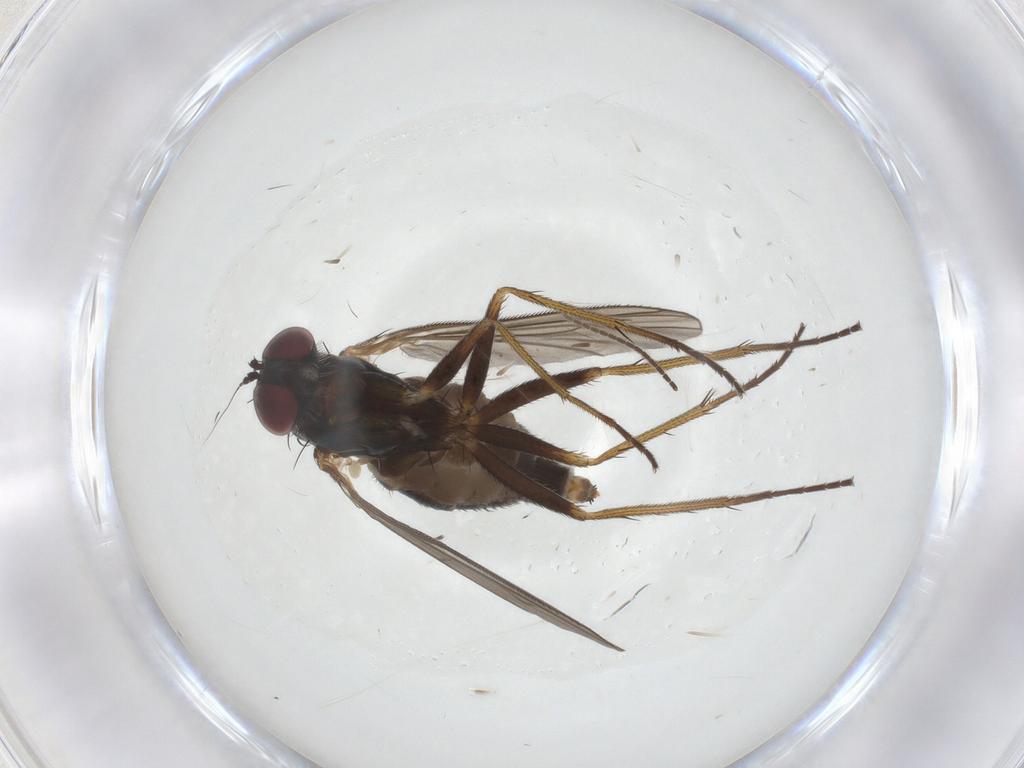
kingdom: Animalia
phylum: Arthropoda
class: Insecta
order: Diptera
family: Dolichopodidae
